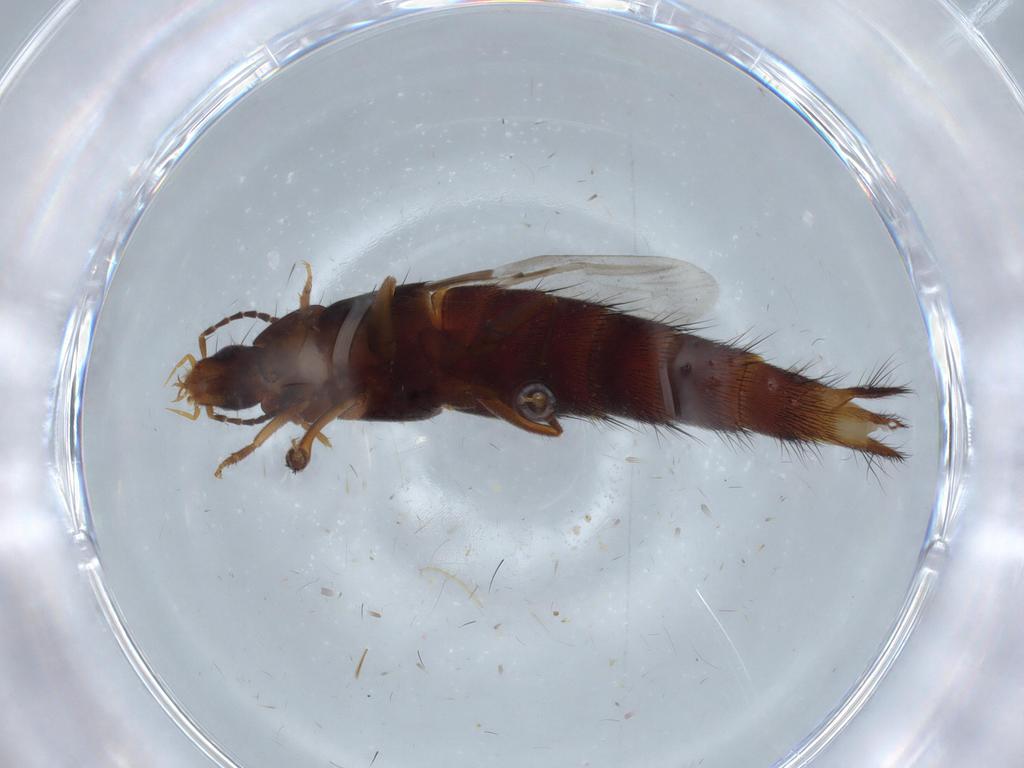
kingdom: Animalia
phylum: Arthropoda
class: Insecta
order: Coleoptera
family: Staphylinidae
